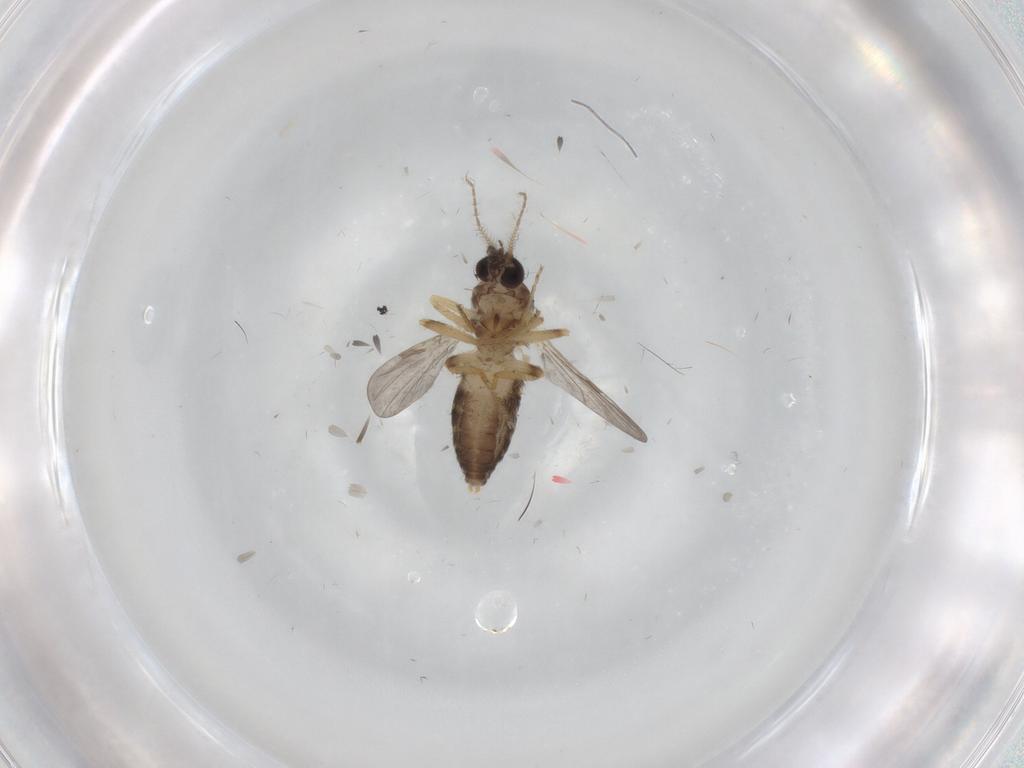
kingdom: Animalia
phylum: Arthropoda
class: Insecta
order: Diptera
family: Ceratopogonidae
